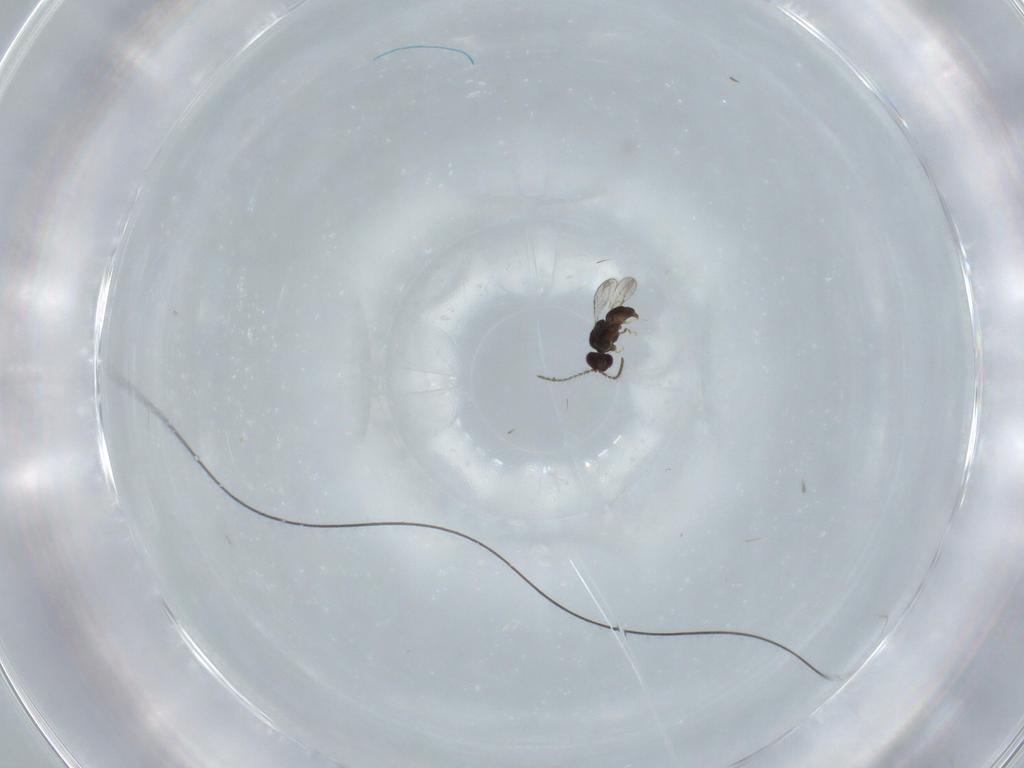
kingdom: Animalia
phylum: Arthropoda
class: Insecta
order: Hymenoptera
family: Ceraphronidae
